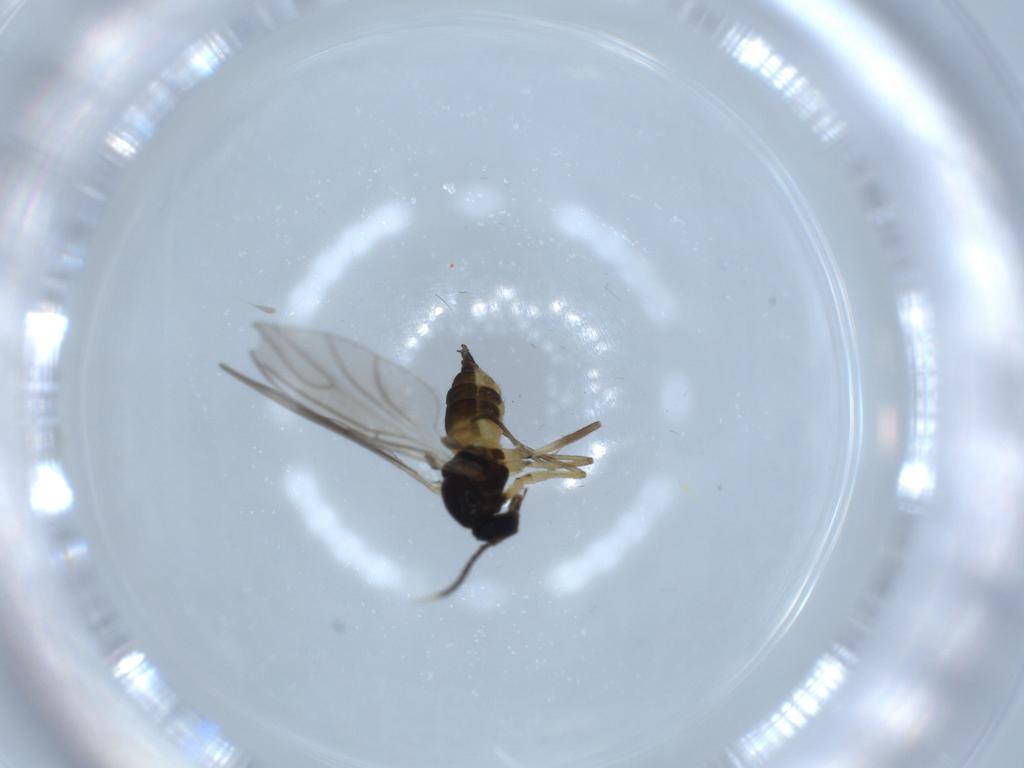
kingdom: Animalia
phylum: Arthropoda
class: Insecta
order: Diptera
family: Sciaridae
